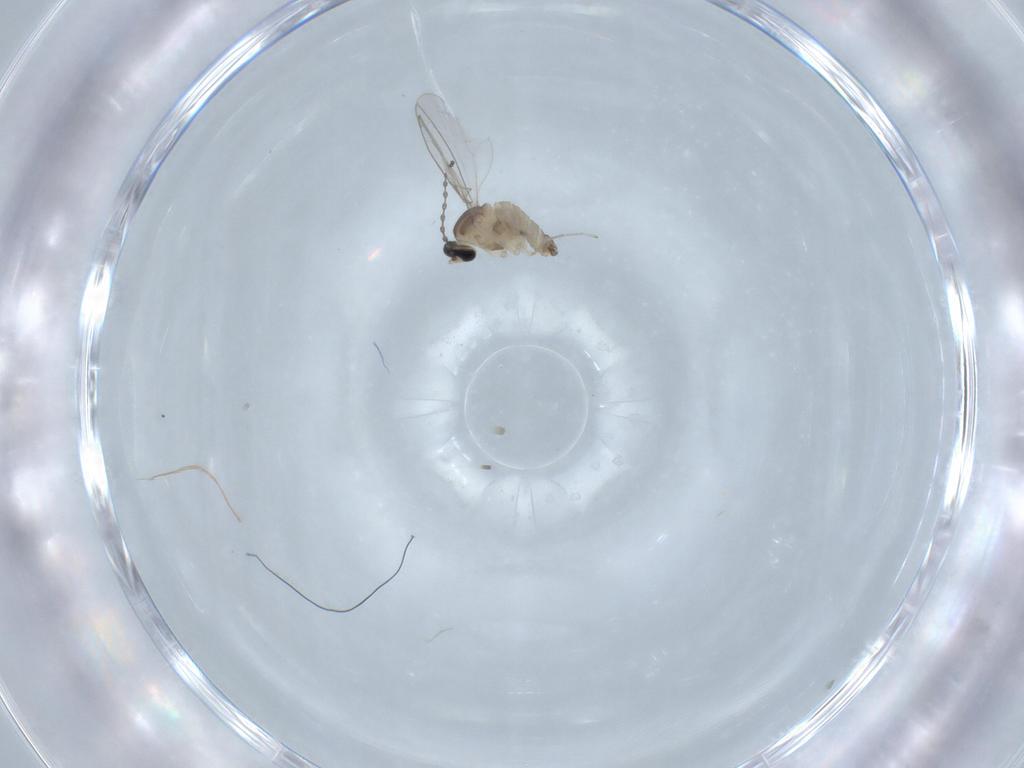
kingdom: Animalia
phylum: Arthropoda
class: Insecta
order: Diptera
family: Cecidomyiidae
